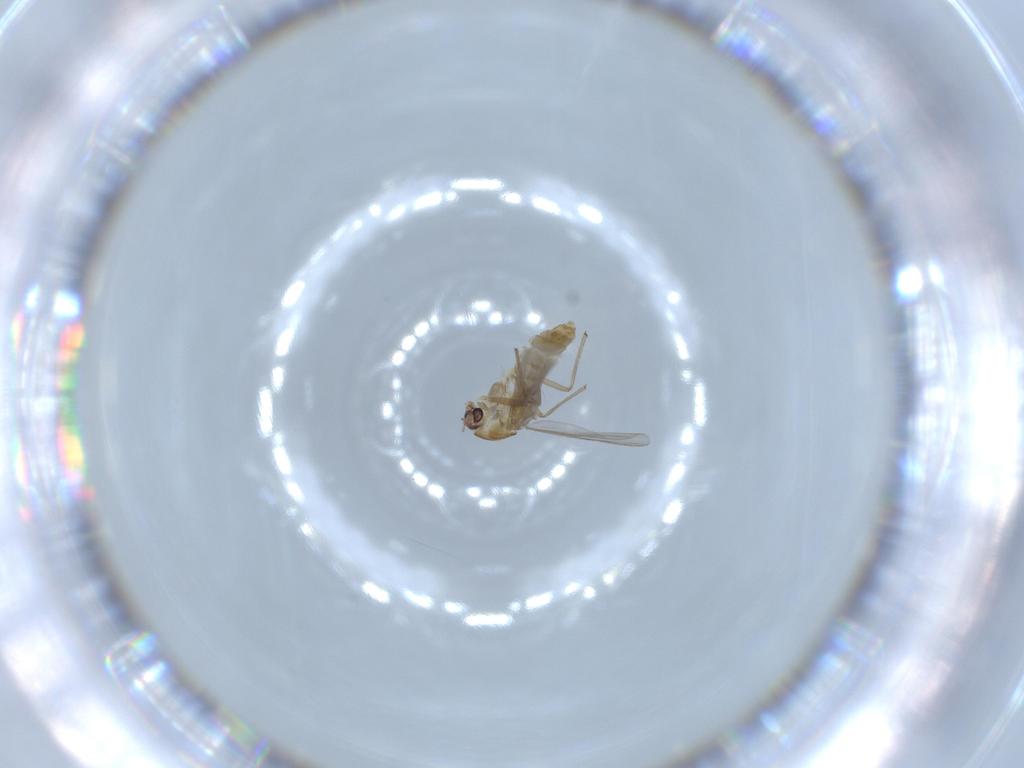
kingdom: Animalia
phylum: Arthropoda
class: Insecta
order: Diptera
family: Chironomidae
